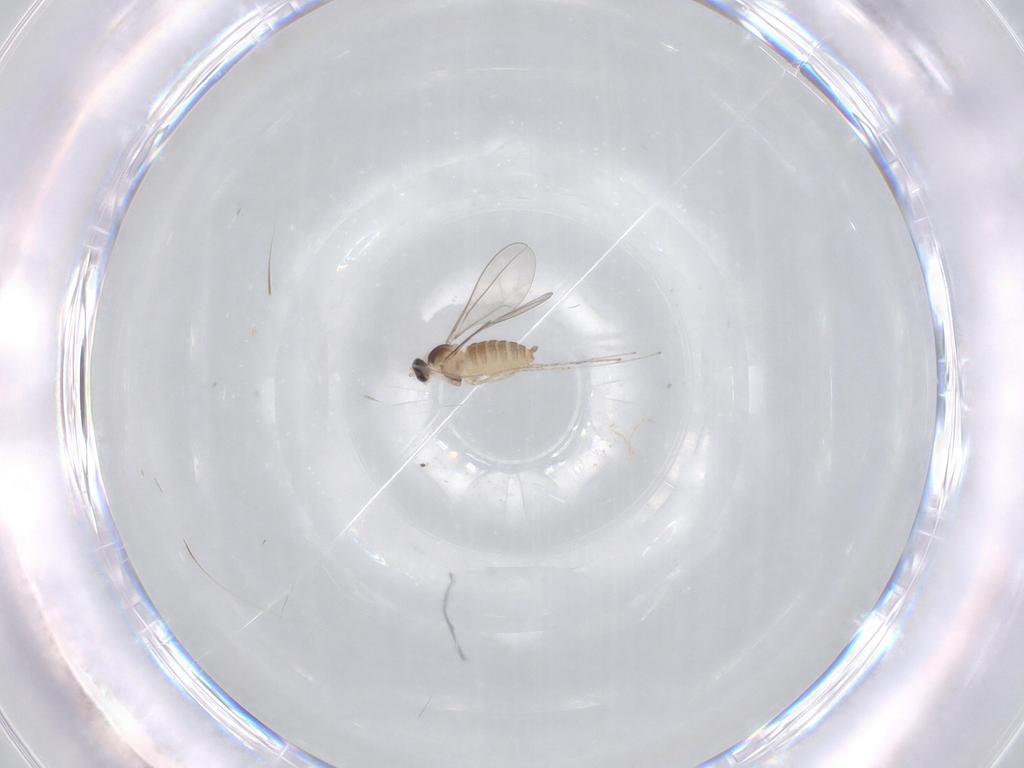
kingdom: Animalia
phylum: Arthropoda
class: Insecta
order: Diptera
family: Cecidomyiidae
